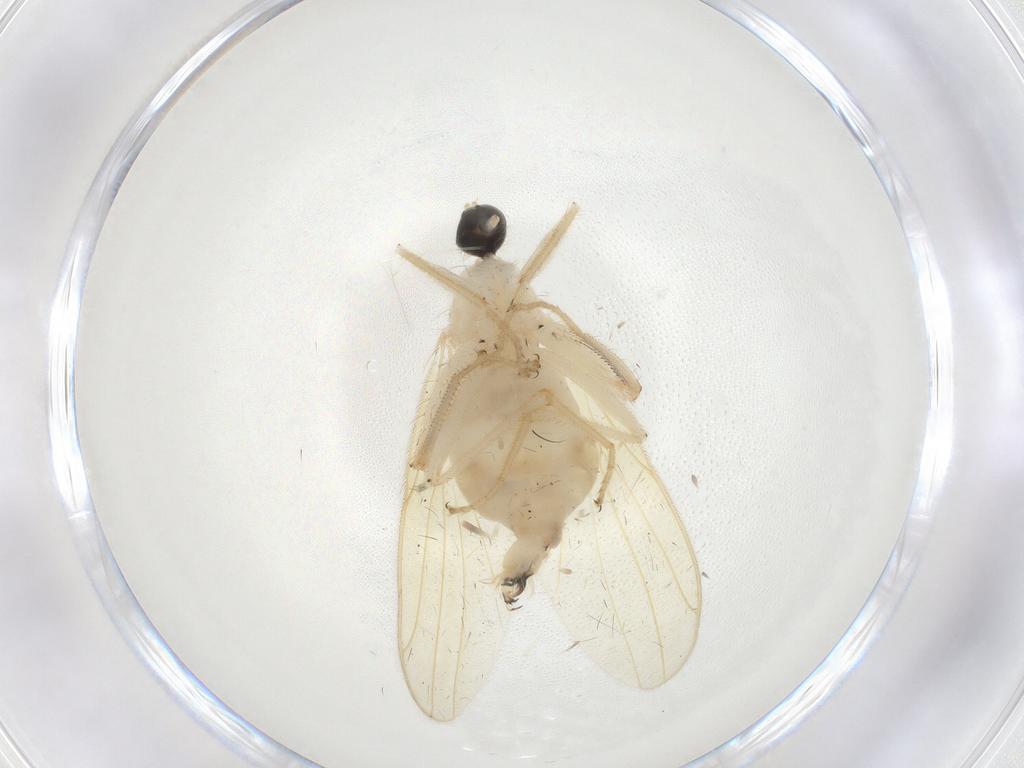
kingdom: Animalia
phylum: Arthropoda
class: Insecta
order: Diptera
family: Hybotidae
